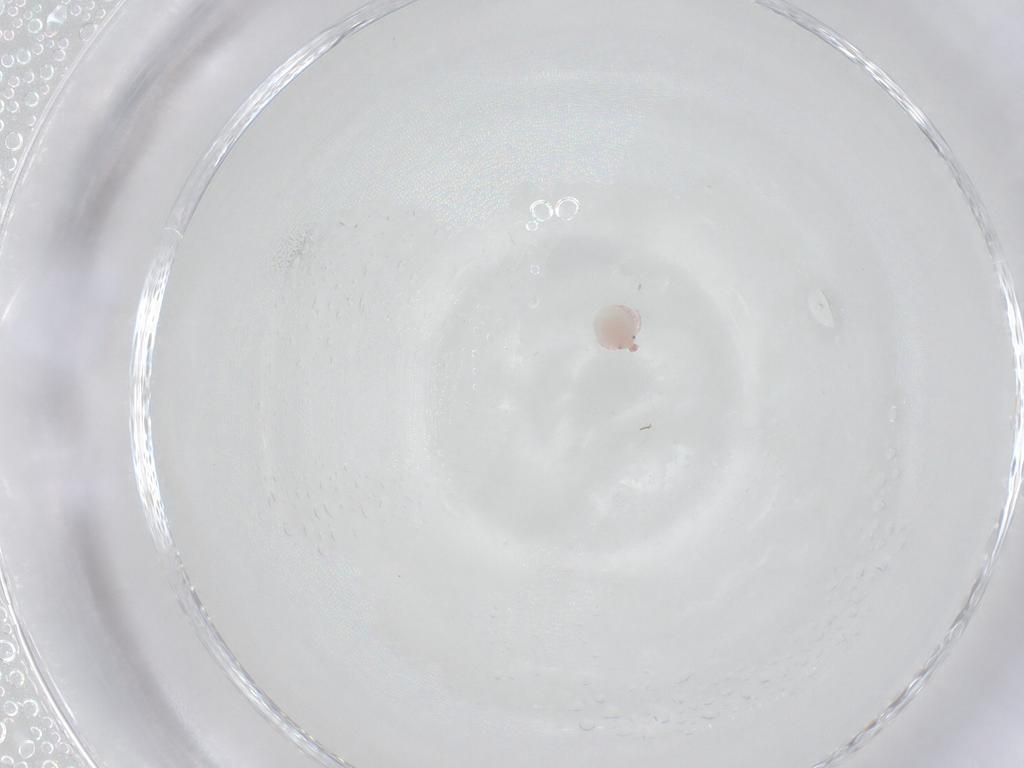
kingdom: Animalia
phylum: Arthropoda
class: Arachnida
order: Trombidiformes
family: Pionidae
